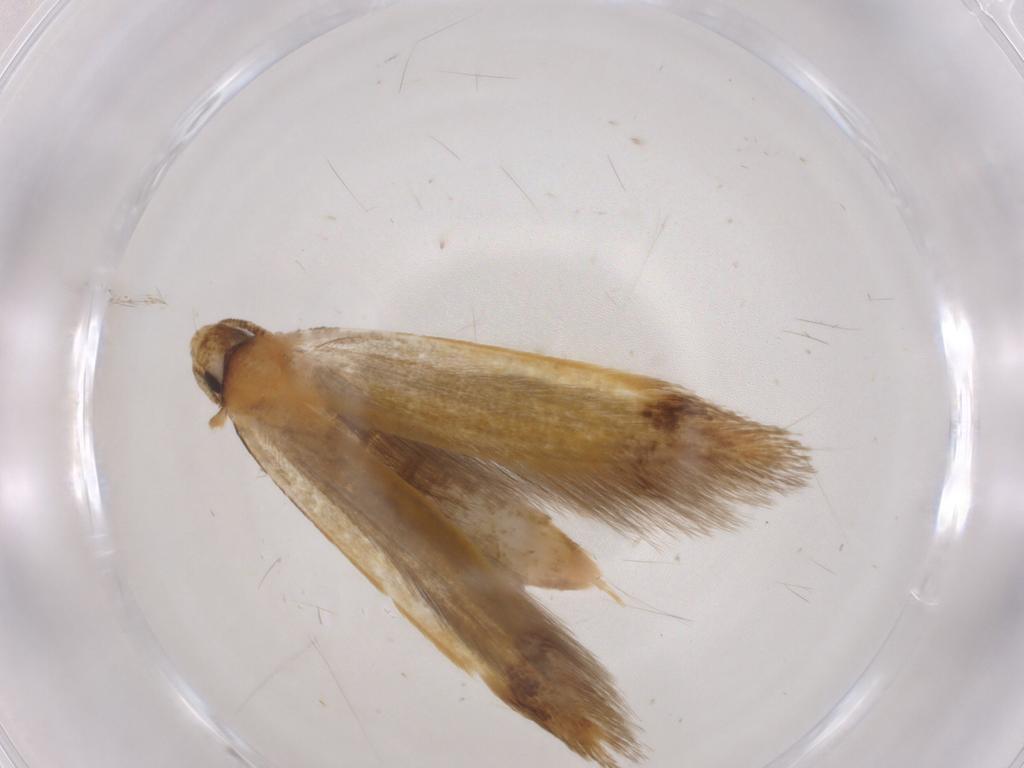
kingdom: Animalia
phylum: Arthropoda
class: Insecta
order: Lepidoptera
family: Tineidae
